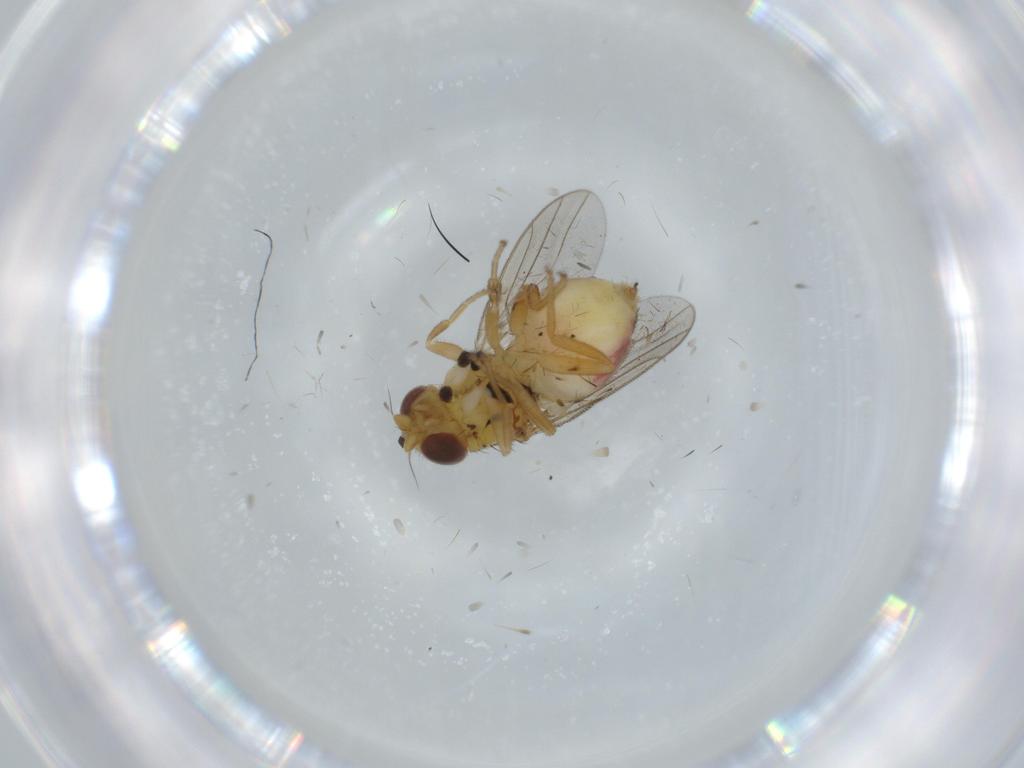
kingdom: Animalia
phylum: Arthropoda
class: Insecta
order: Diptera
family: Chloropidae
